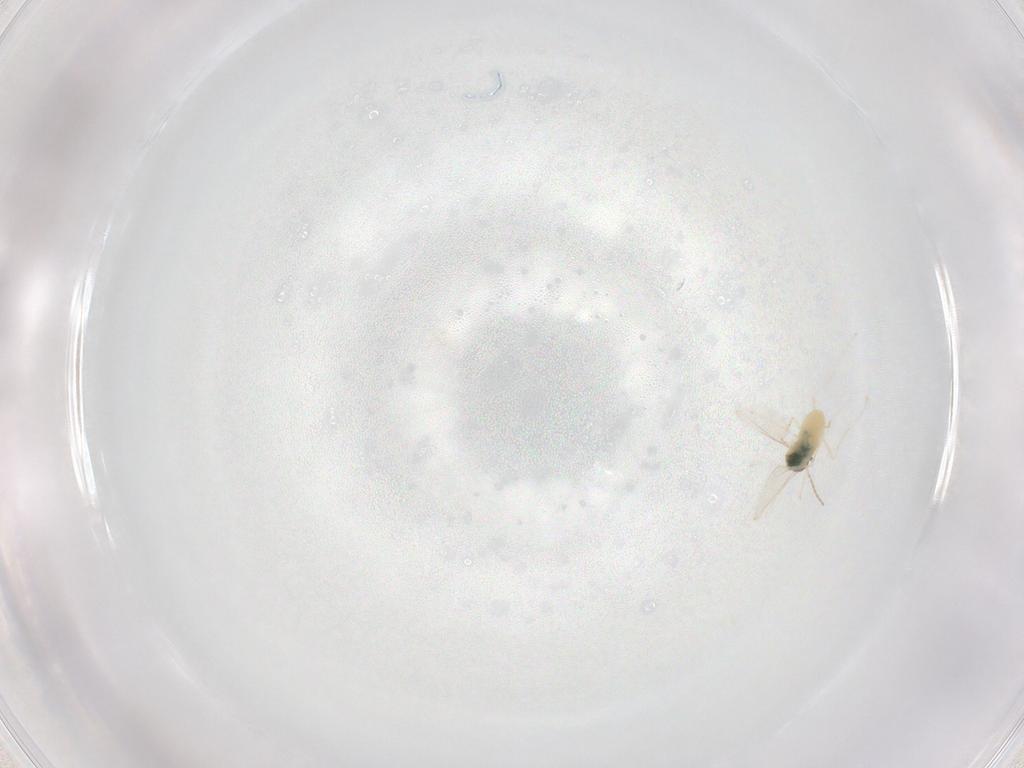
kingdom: Animalia
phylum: Arthropoda
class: Insecta
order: Diptera
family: Cecidomyiidae
